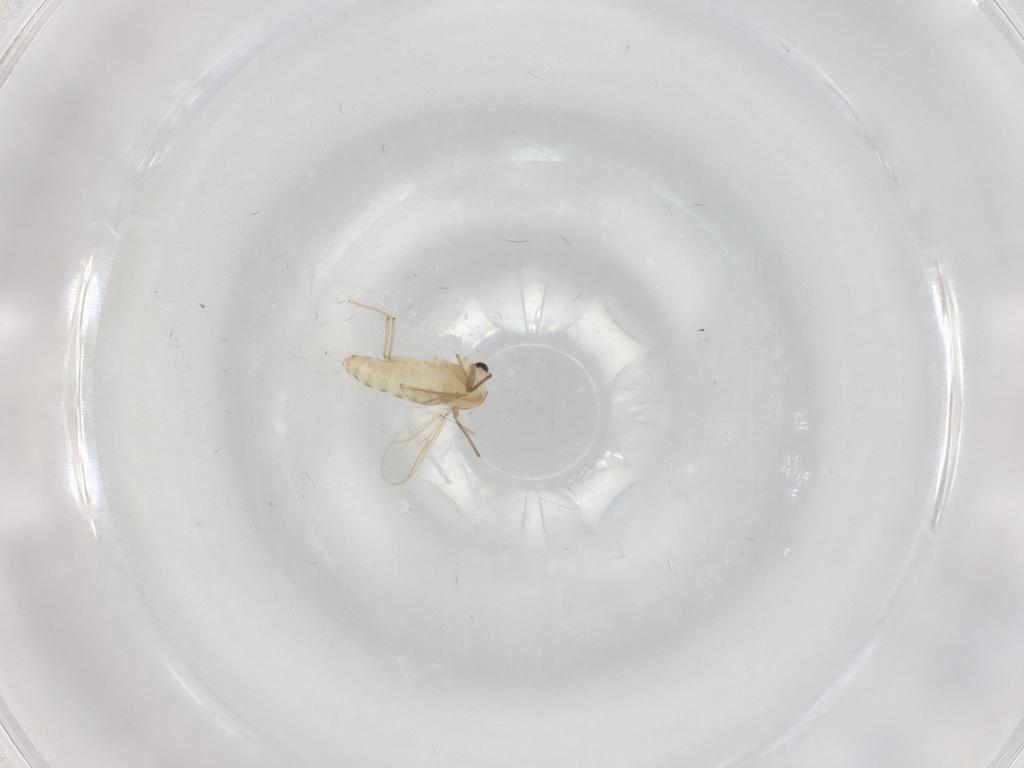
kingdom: Animalia
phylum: Arthropoda
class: Insecta
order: Diptera
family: Chironomidae
